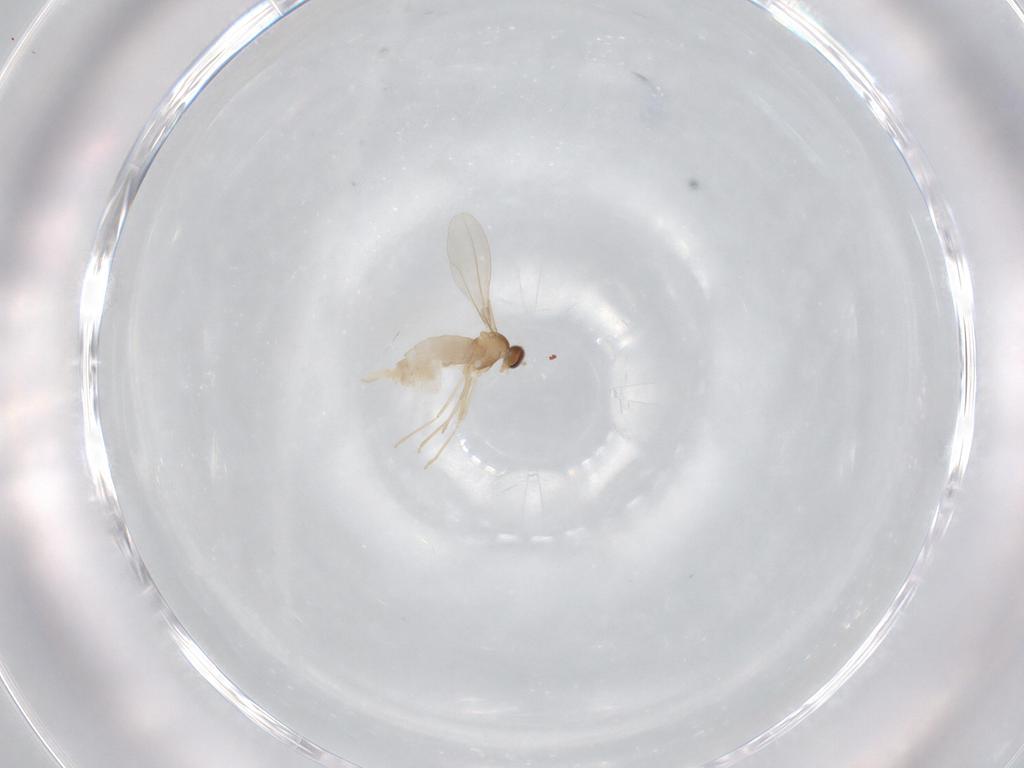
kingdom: Animalia
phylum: Arthropoda
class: Insecta
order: Diptera
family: Cecidomyiidae
